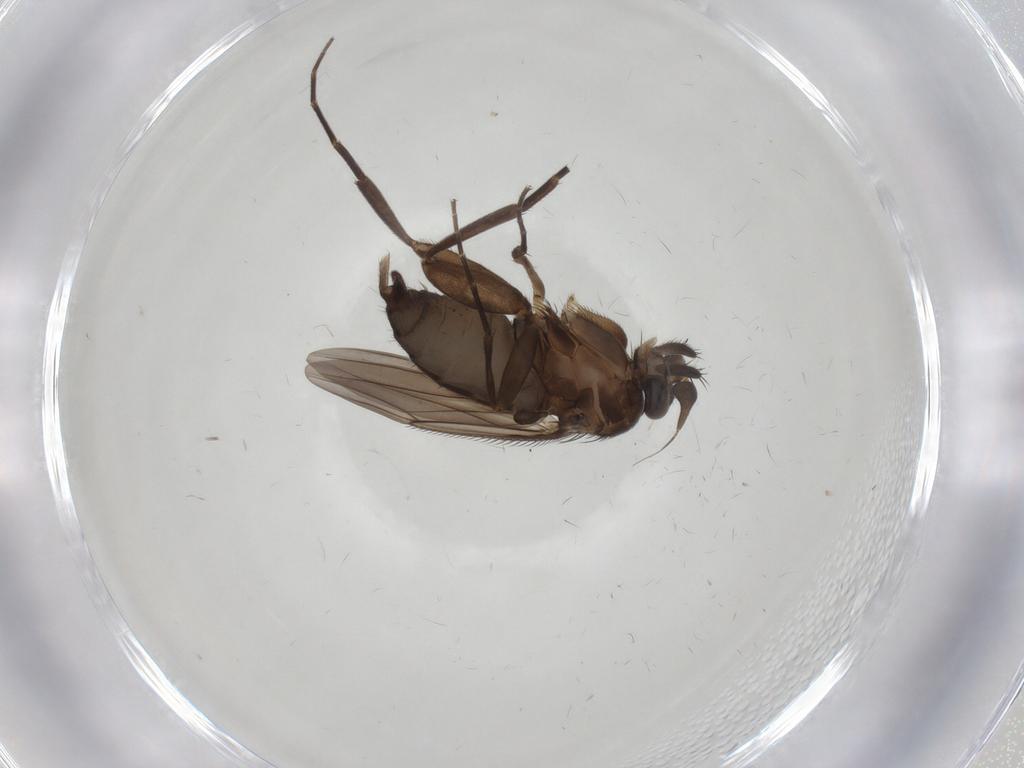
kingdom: Animalia
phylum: Arthropoda
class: Insecta
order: Diptera
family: Phoridae
